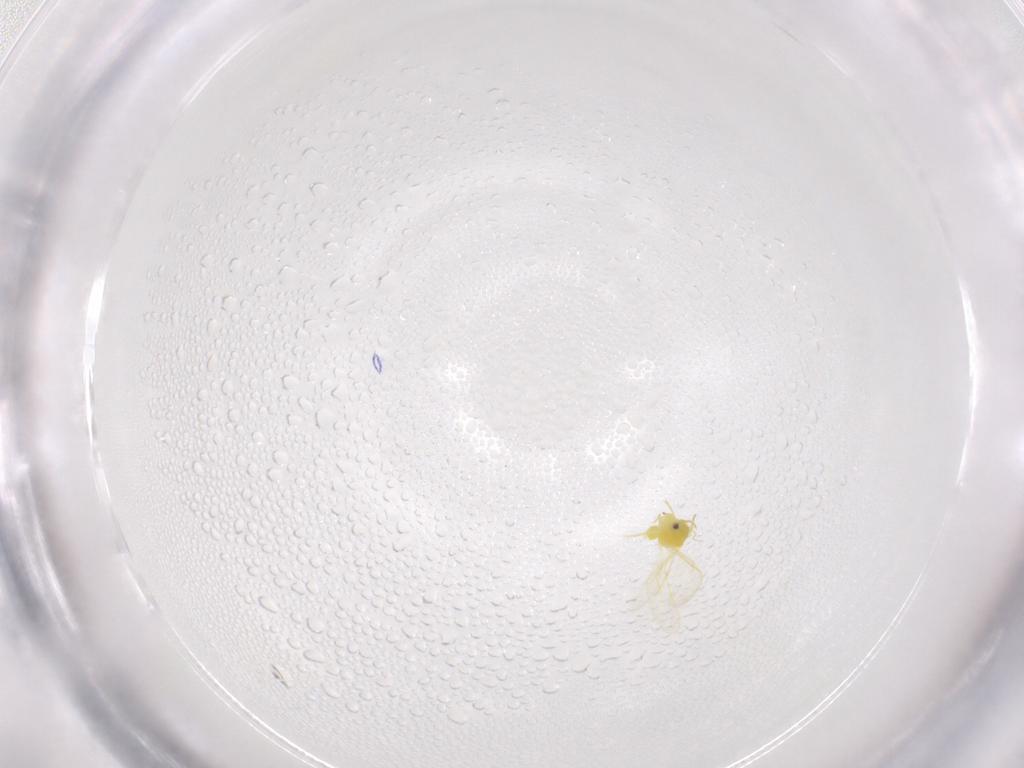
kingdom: Animalia
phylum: Arthropoda
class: Insecta
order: Hemiptera
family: Aleyrodidae
